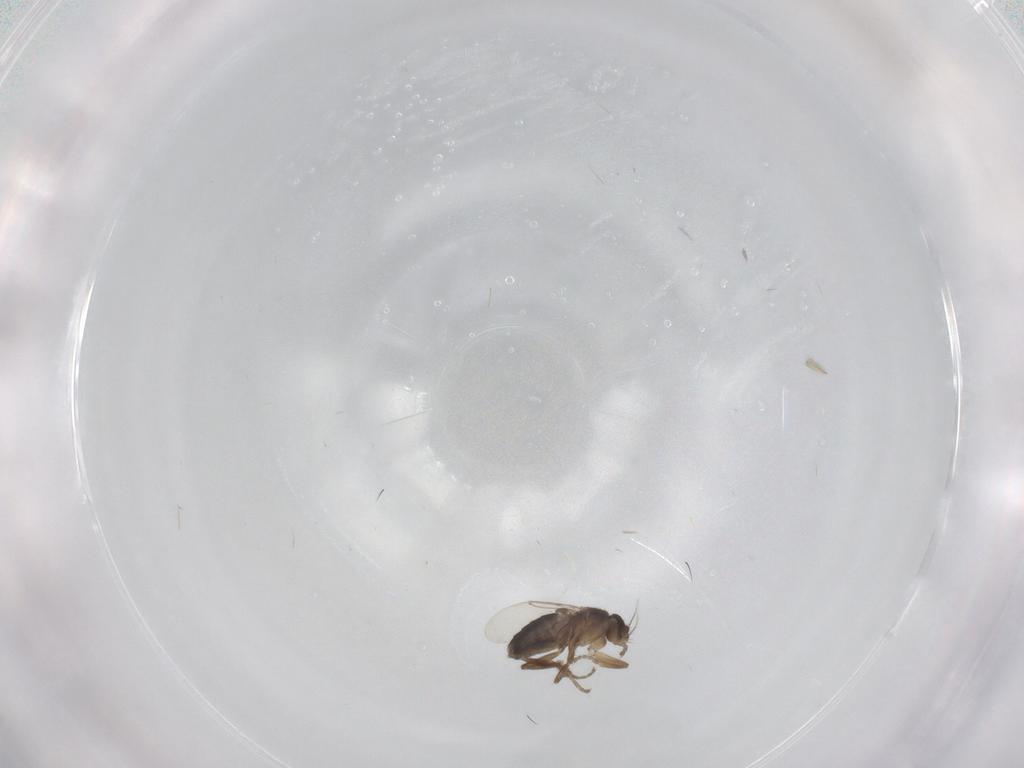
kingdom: Animalia
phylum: Arthropoda
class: Insecta
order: Diptera
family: Phoridae
